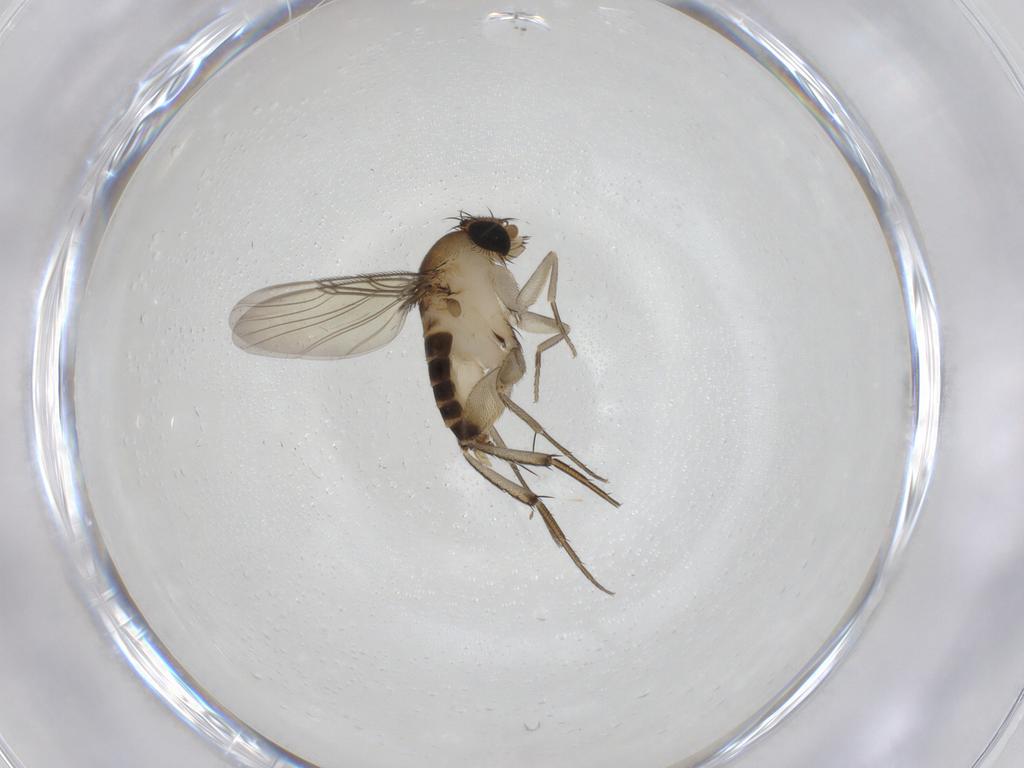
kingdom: Animalia
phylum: Arthropoda
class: Insecta
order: Diptera
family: Phoridae
